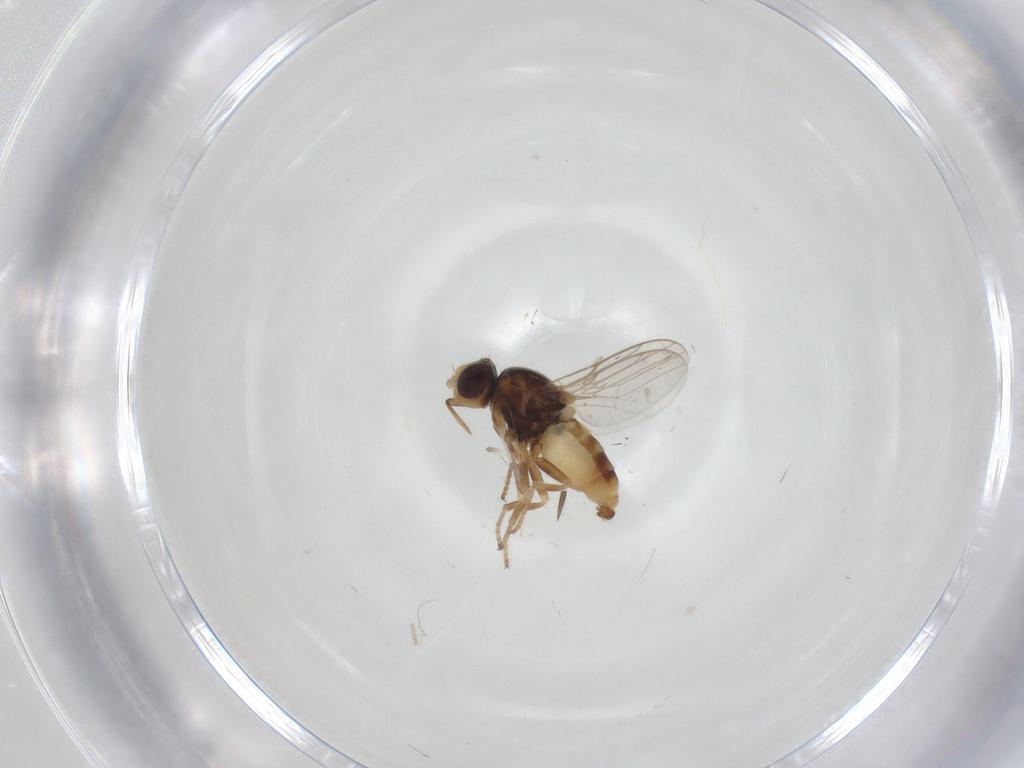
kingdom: Animalia
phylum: Arthropoda
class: Insecta
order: Diptera
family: Chloropidae
